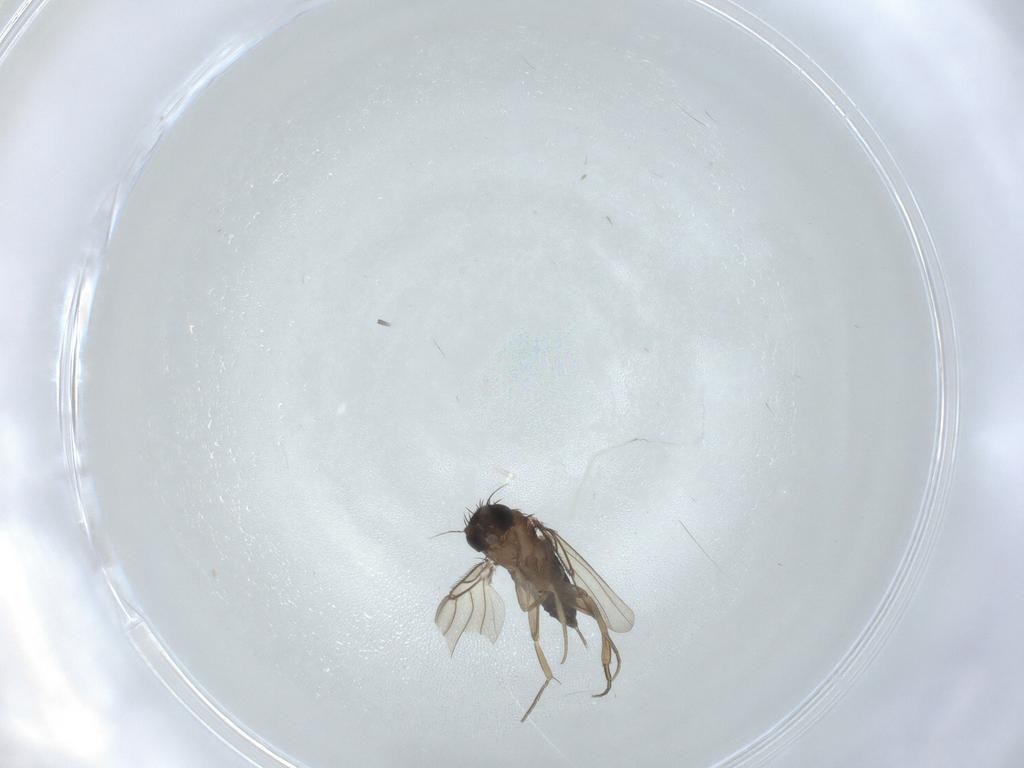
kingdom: Animalia
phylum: Arthropoda
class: Insecta
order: Diptera
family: Phoridae
